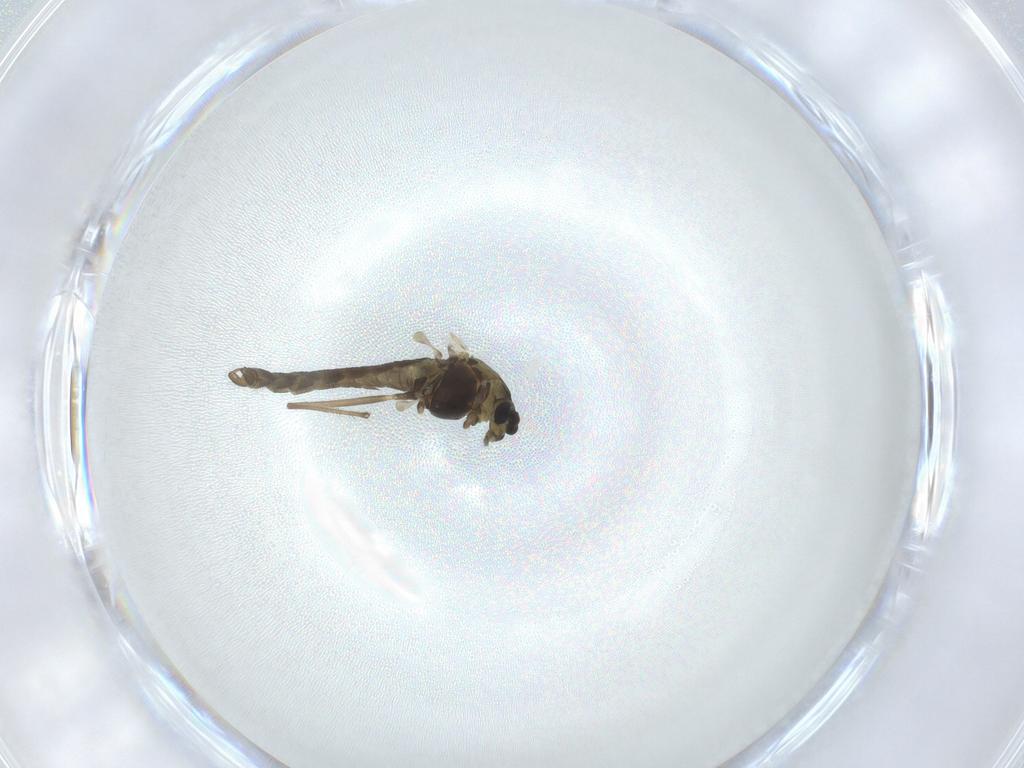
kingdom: Animalia
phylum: Arthropoda
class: Insecta
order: Diptera
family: Chironomidae
